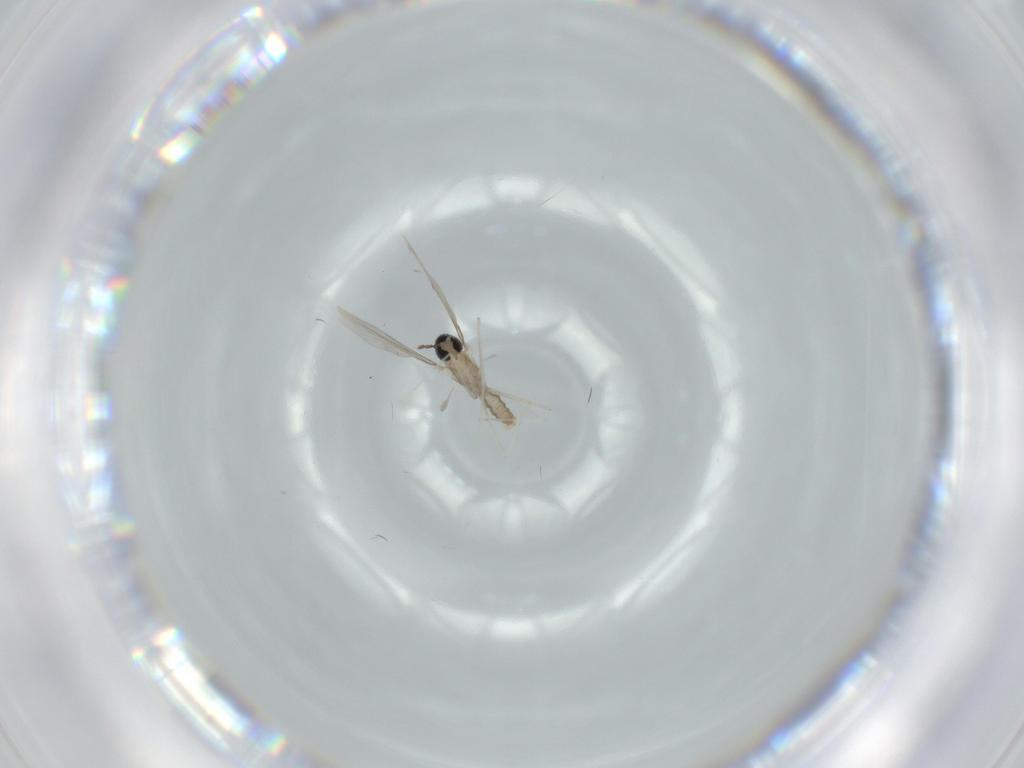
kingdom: Animalia
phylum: Arthropoda
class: Insecta
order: Diptera
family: Cecidomyiidae
